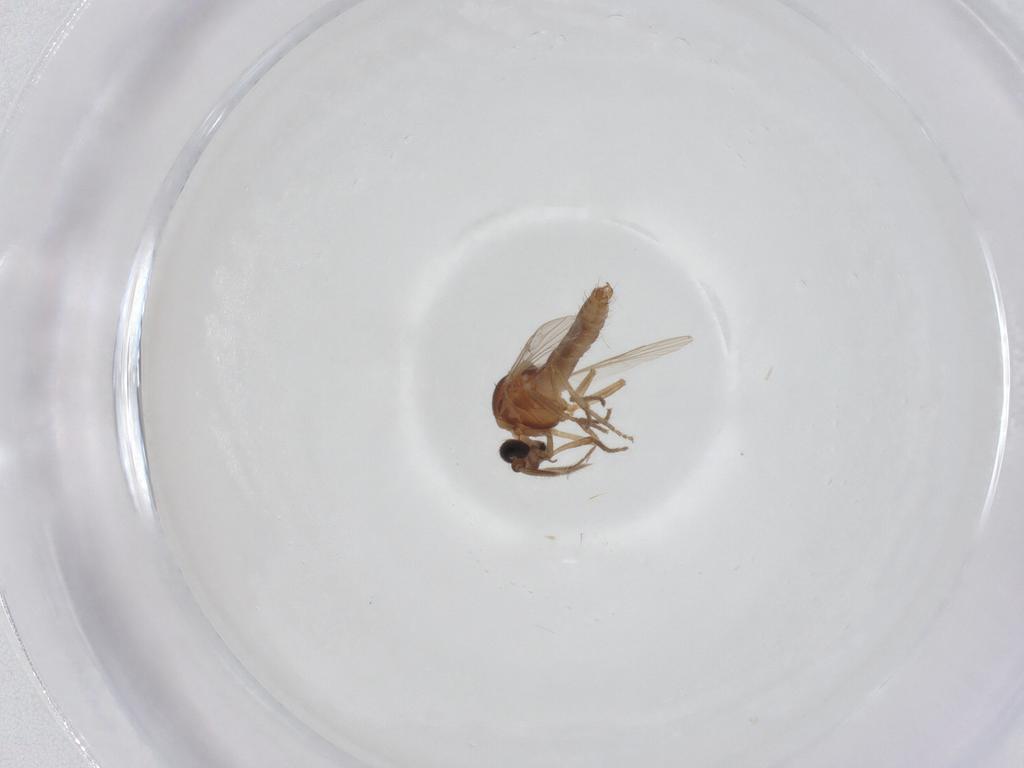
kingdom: Animalia
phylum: Arthropoda
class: Insecta
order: Diptera
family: Ceratopogonidae
